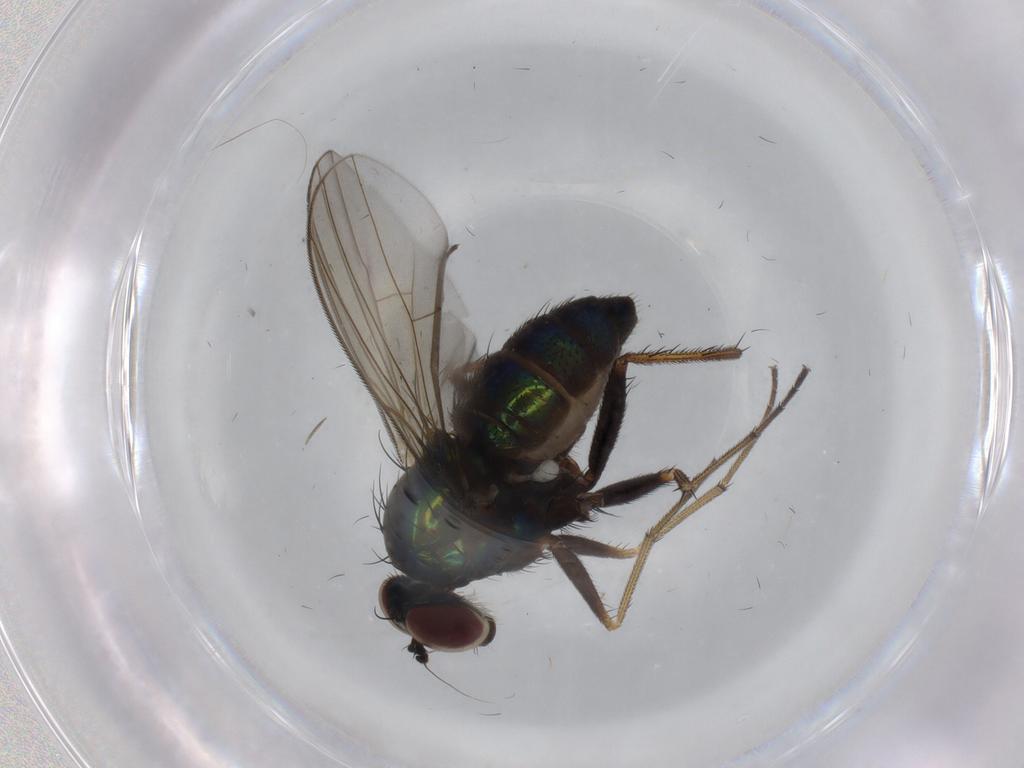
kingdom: Animalia
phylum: Arthropoda
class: Insecta
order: Diptera
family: Dolichopodidae
